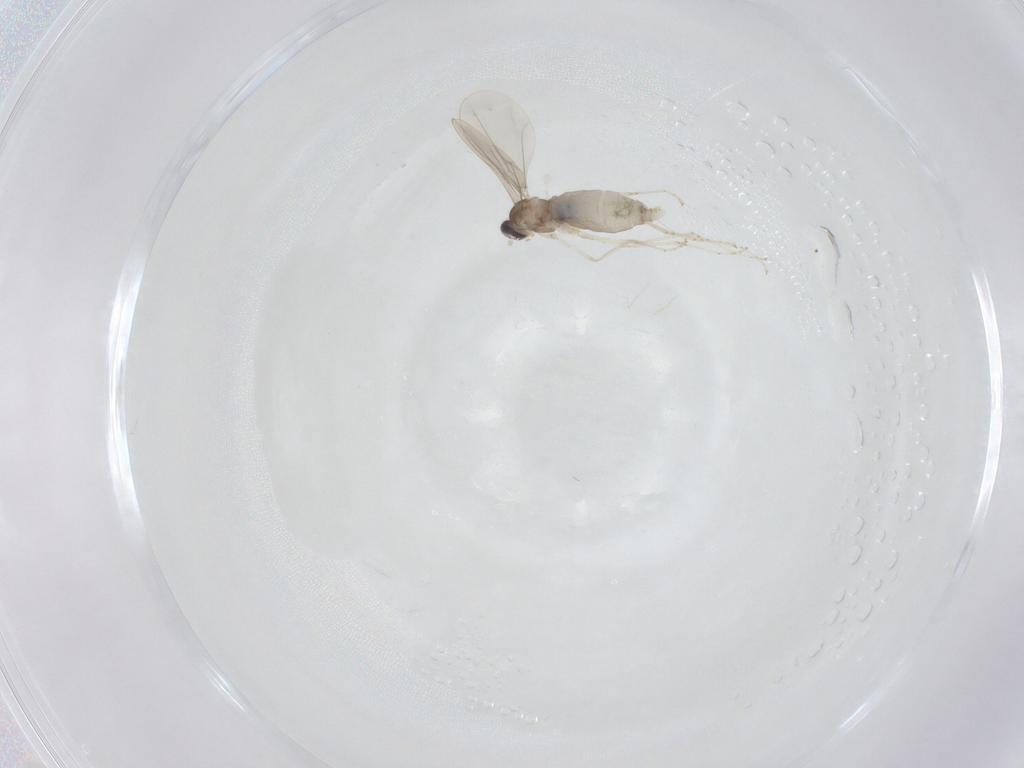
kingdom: Animalia
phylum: Arthropoda
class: Insecta
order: Diptera
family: Cecidomyiidae
